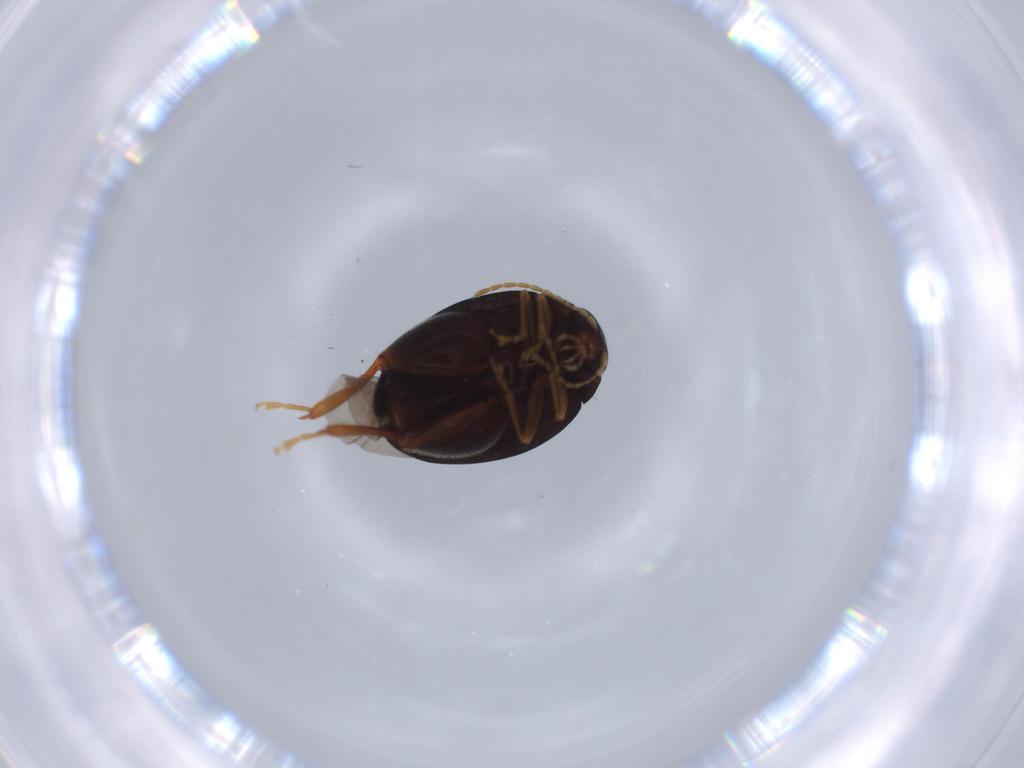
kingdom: Animalia
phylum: Arthropoda
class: Insecta
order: Coleoptera
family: Chrysomelidae
